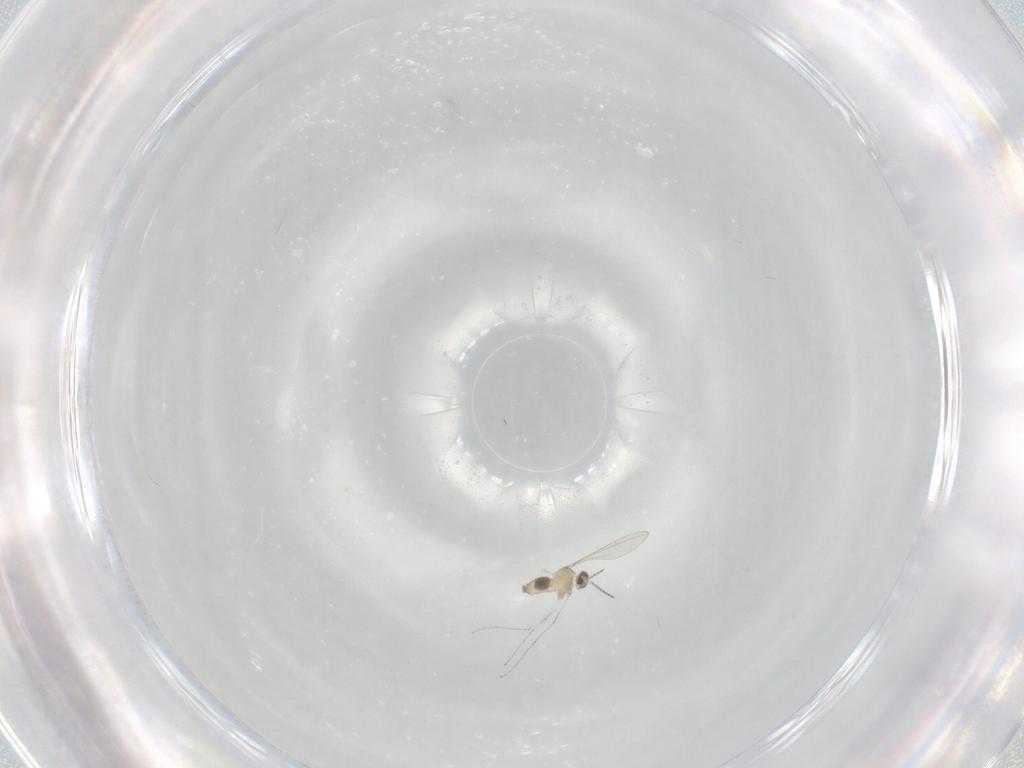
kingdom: Animalia
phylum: Arthropoda
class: Insecta
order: Diptera
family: Cecidomyiidae
